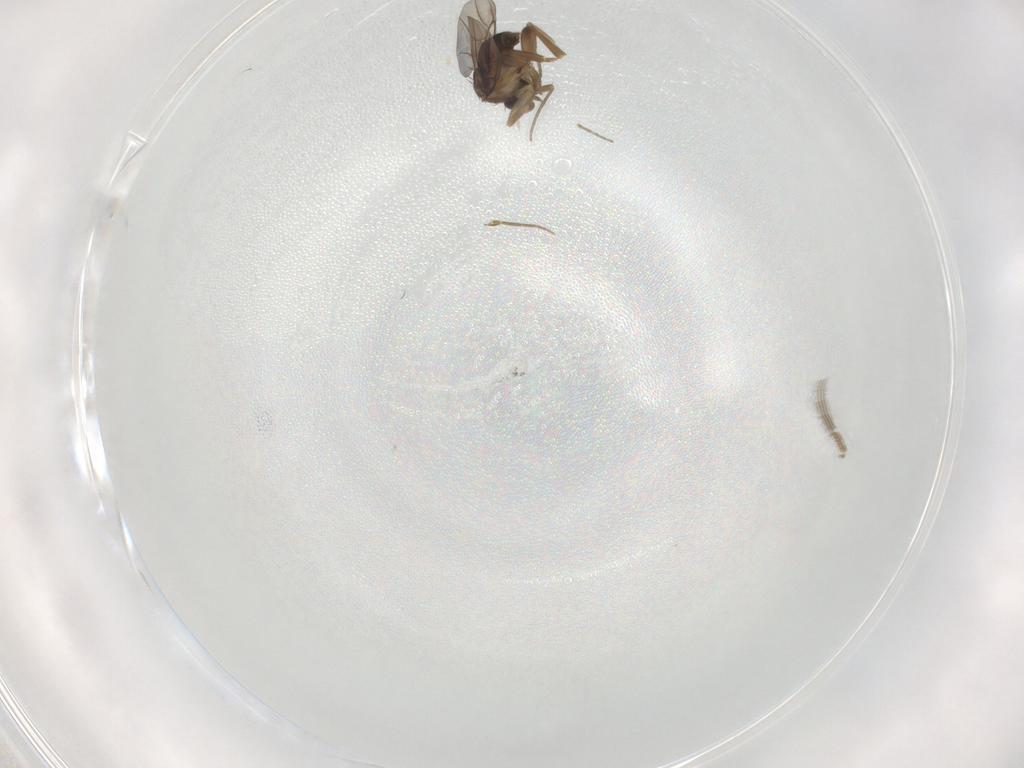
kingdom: Animalia
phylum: Arthropoda
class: Insecta
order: Diptera
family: Phoridae
